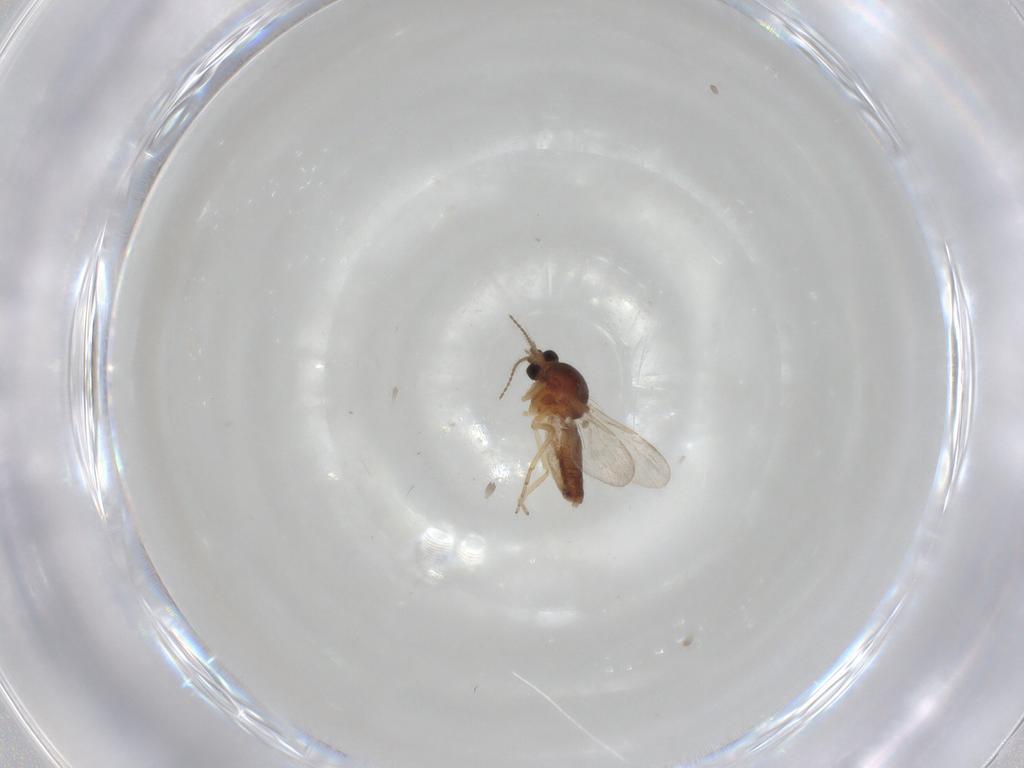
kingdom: Animalia
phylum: Arthropoda
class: Insecta
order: Diptera
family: Ceratopogonidae
